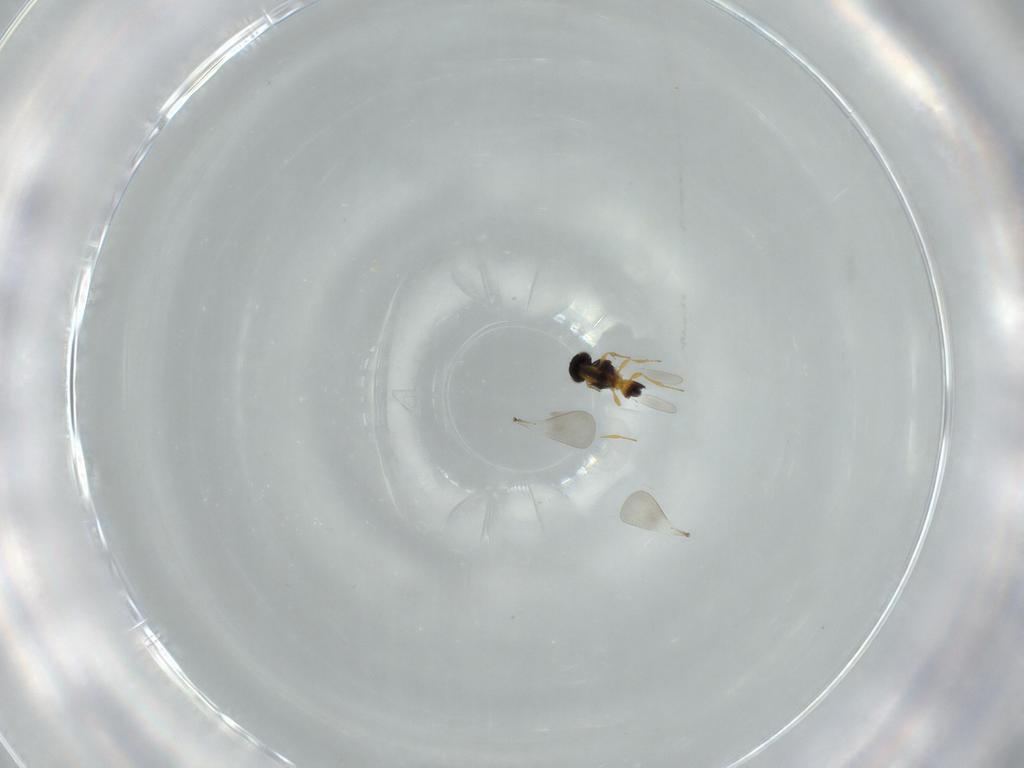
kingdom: Animalia
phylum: Arthropoda
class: Insecta
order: Hymenoptera
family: Platygastridae
